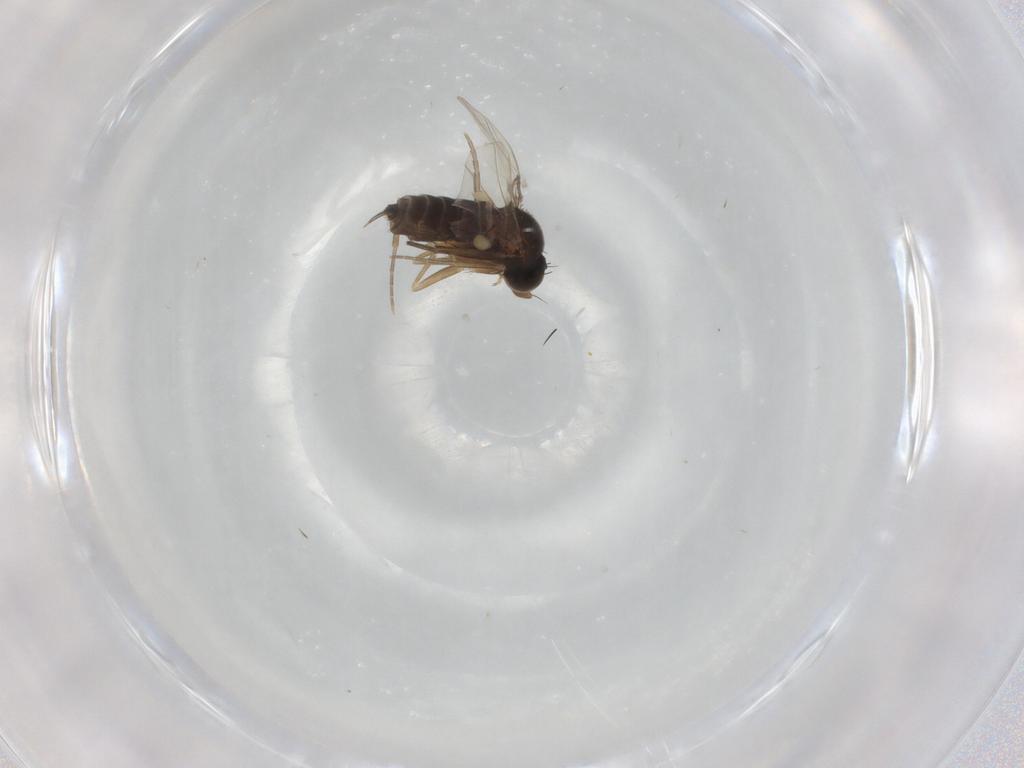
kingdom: Animalia
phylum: Arthropoda
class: Insecta
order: Diptera
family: Phoridae
